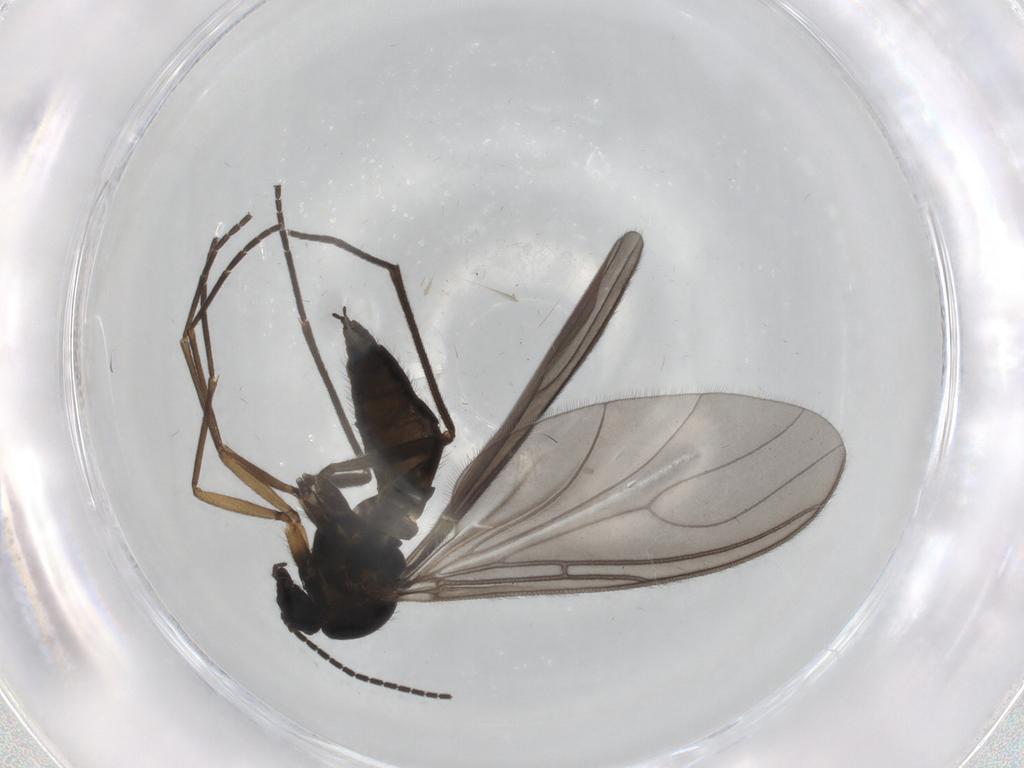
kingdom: Animalia
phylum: Arthropoda
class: Insecta
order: Diptera
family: Sciaridae
